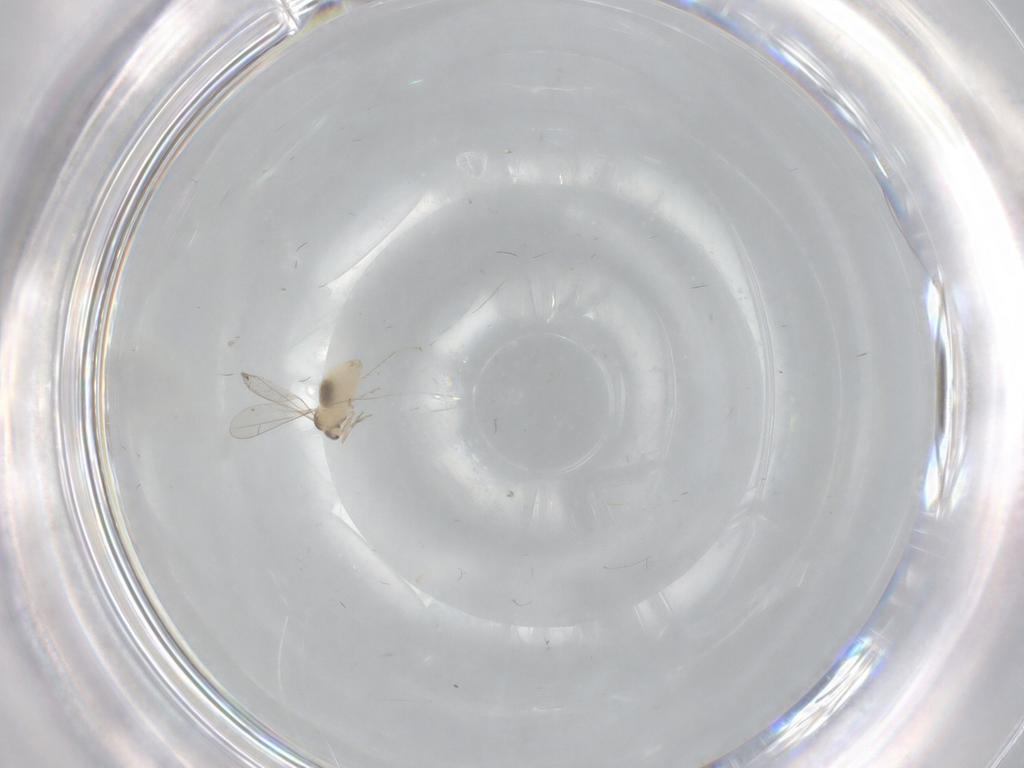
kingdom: Animalia
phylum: Arthropoda
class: Insecta
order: Diptera
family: Cecidomyiidae
